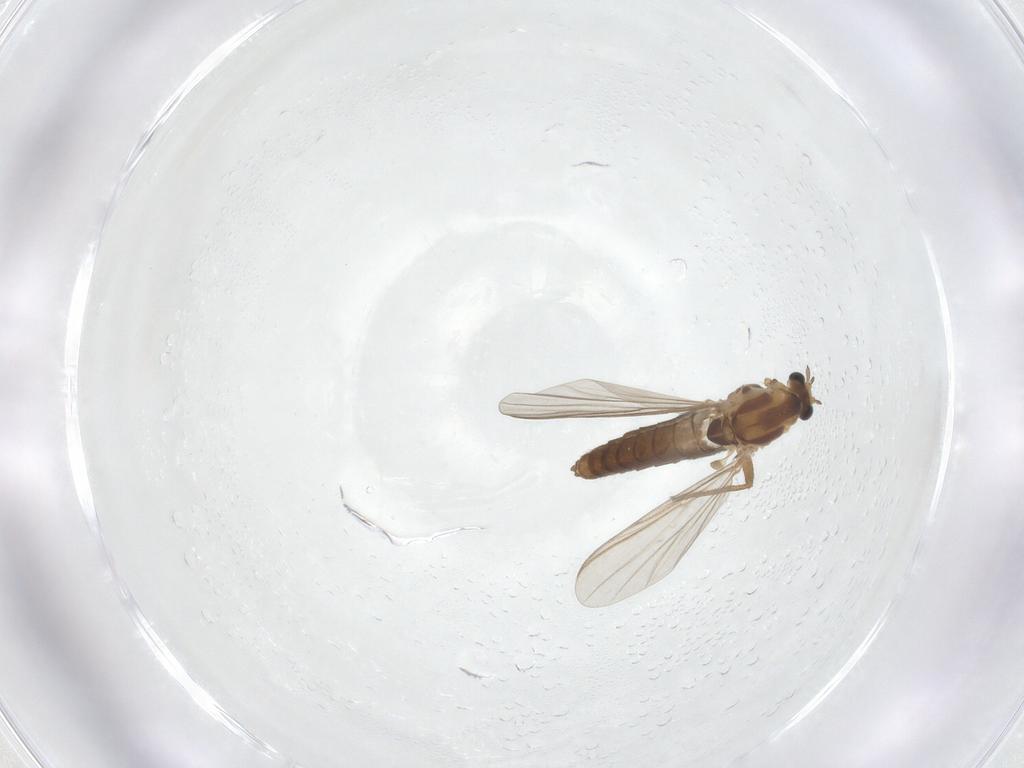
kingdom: Animalia
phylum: Arthropoda
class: Insecta
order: Diptera
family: Chironomidae
